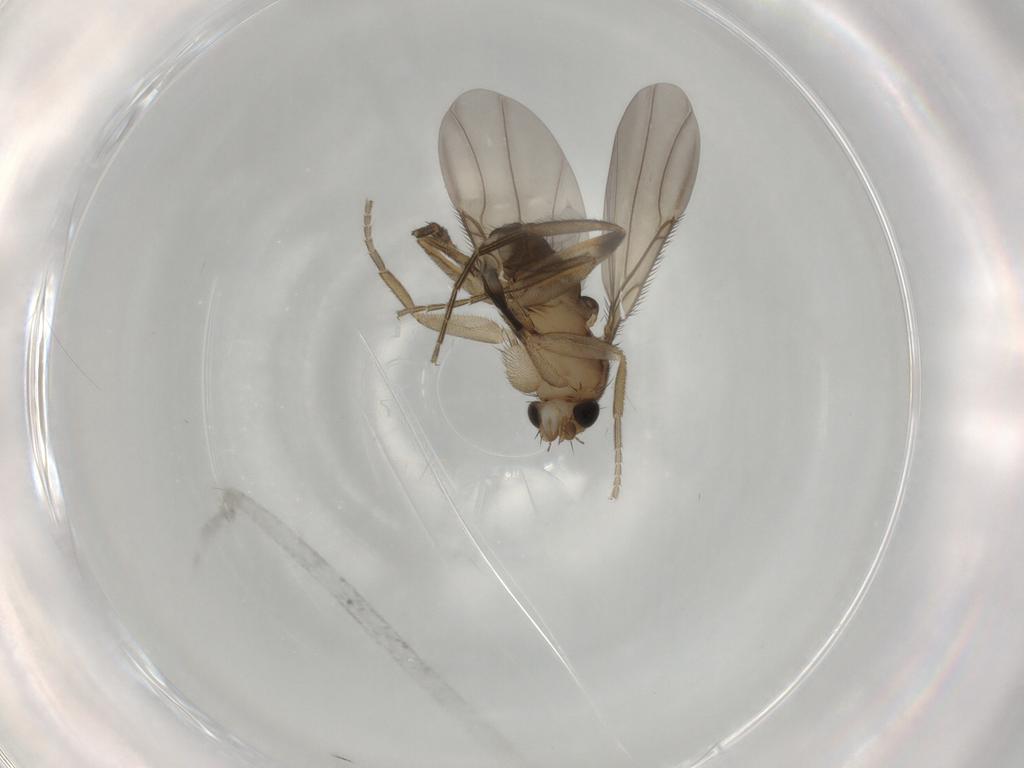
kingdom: Animalia
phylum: Arthropoda
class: Insecta
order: Diptera
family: Phoridae
